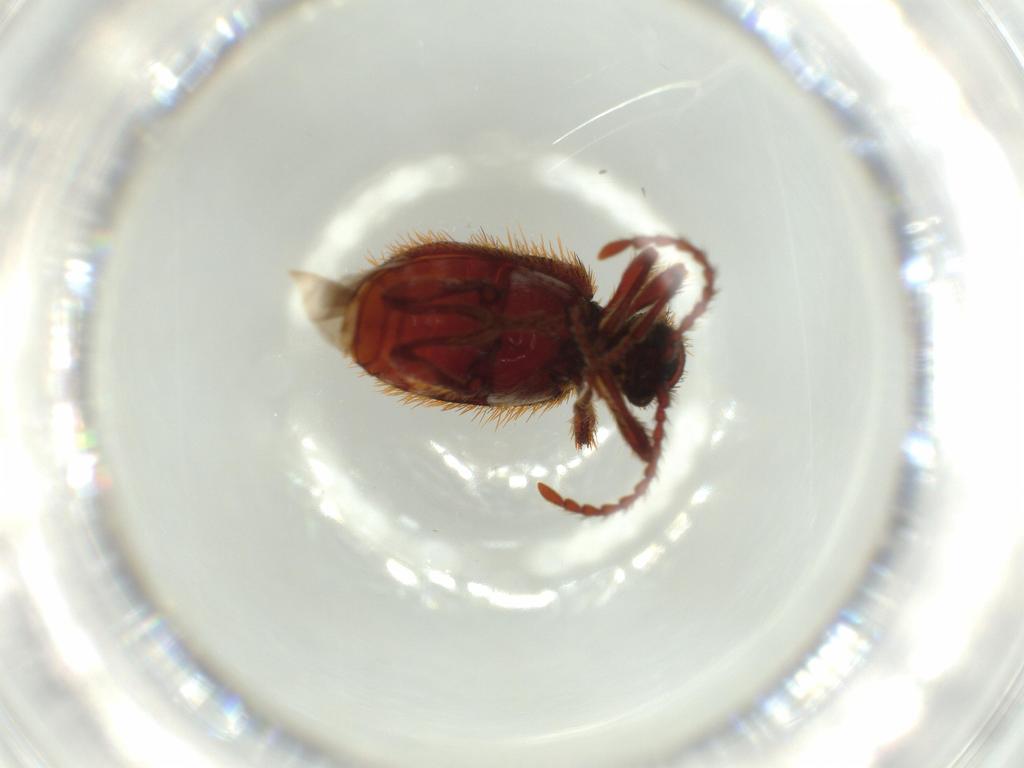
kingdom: Animalia
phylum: Arthropoda
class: Insecta
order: Coleoptera
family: Ptinidae
